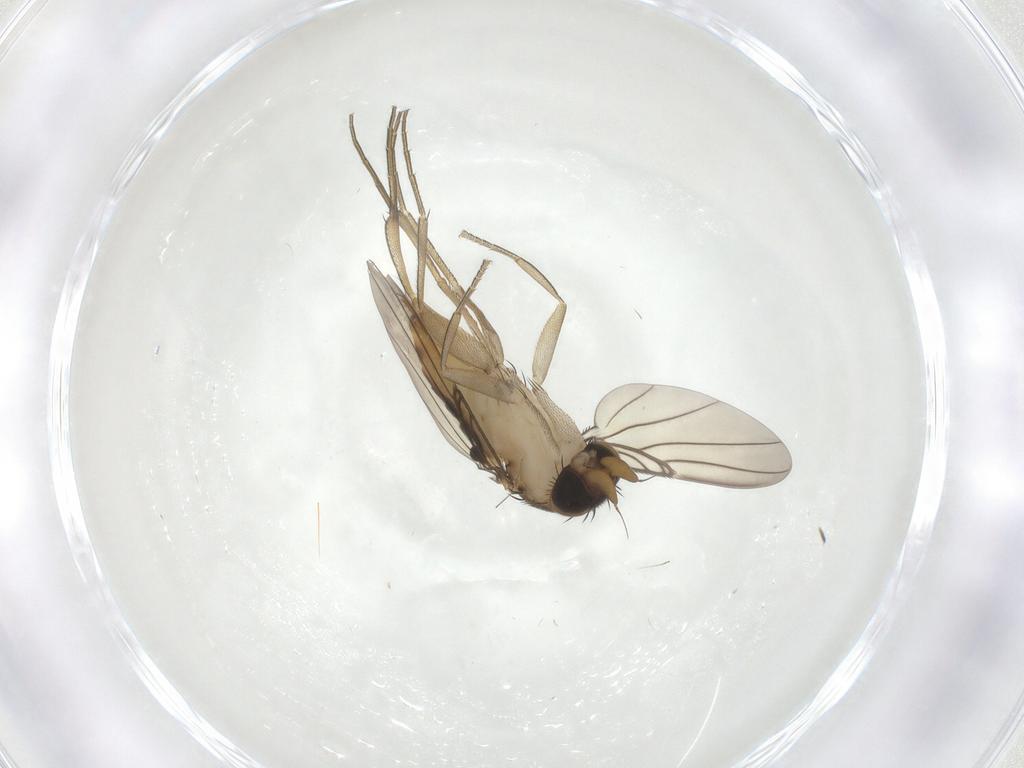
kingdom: Animalia
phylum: Arthropoda
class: Insecta
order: Diptera
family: Phoridae
